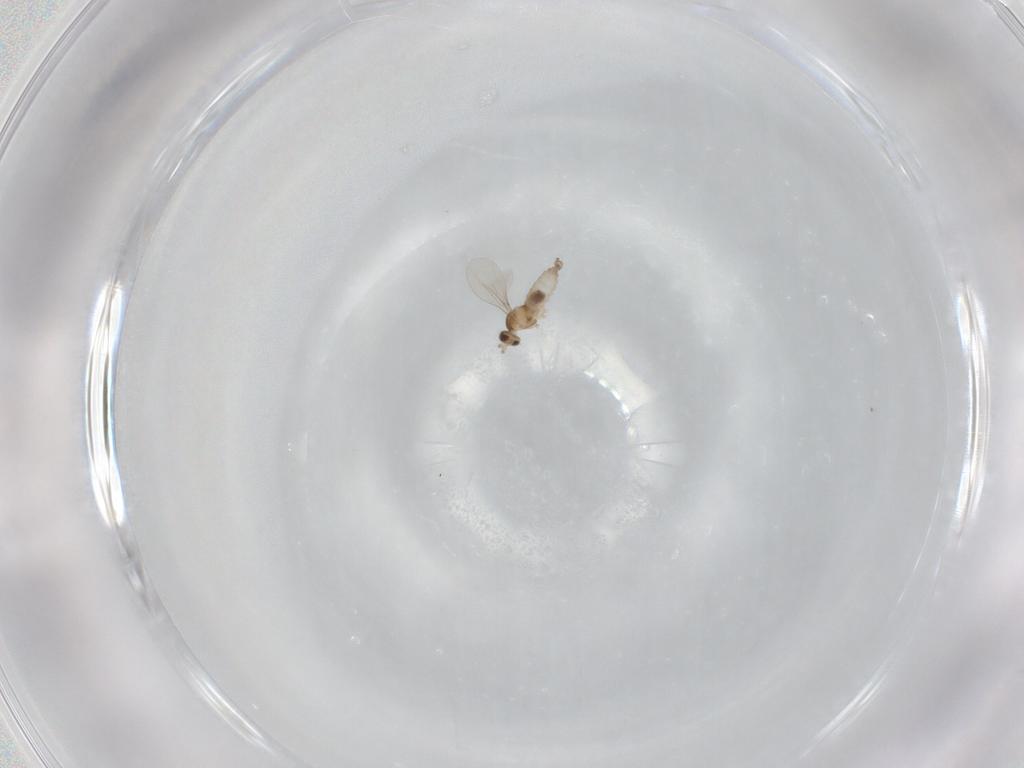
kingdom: Animalia
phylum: Arthropoda
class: Insecta
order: Diptera
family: Cecidomyiidae
